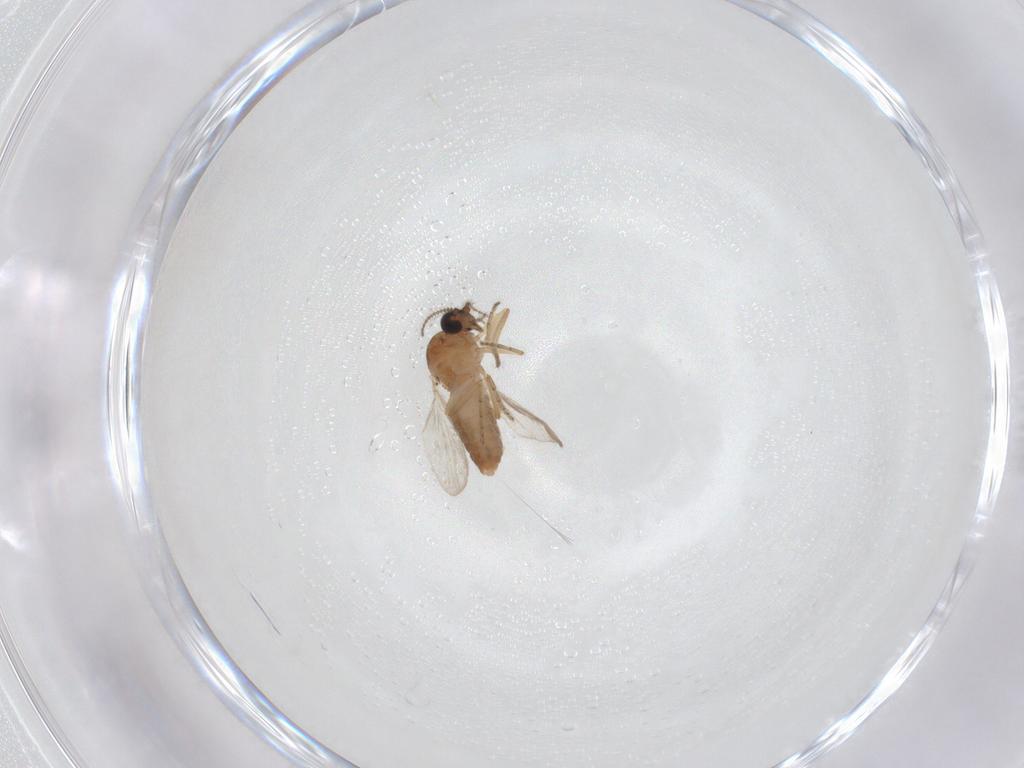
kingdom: Animalia
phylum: Arthropoda
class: Insecta
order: Diptera
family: Ceratopogonidae
